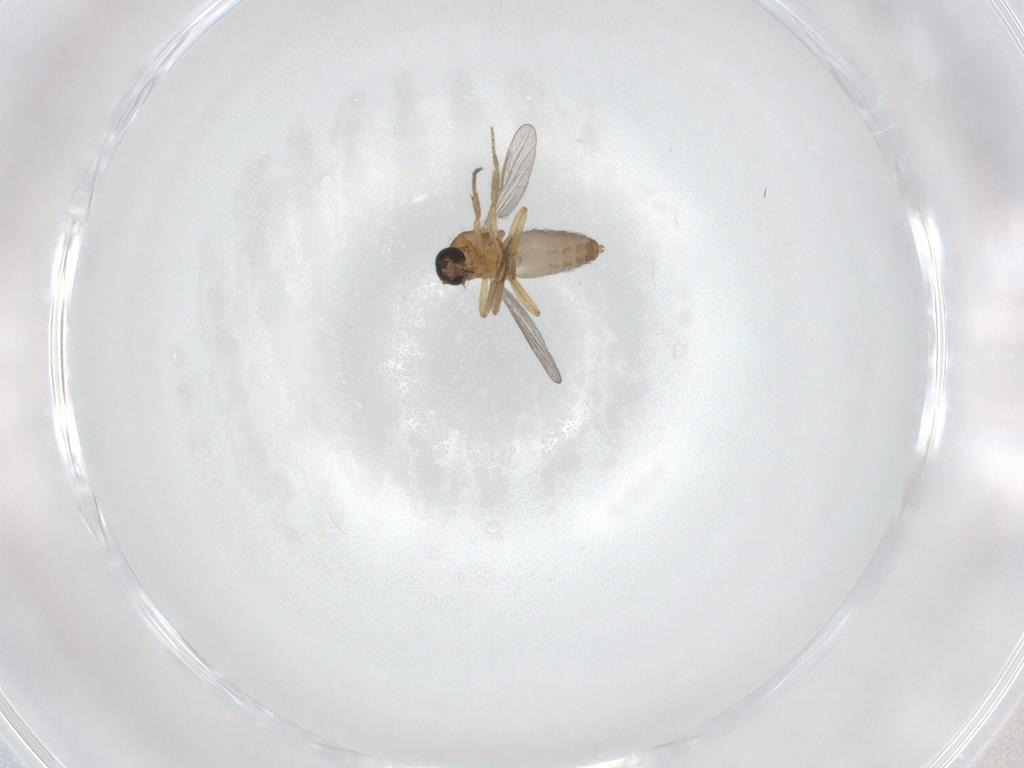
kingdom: Animalia
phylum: Arthropoda
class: Insecta
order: Diptera
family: Ceratopogonidae
